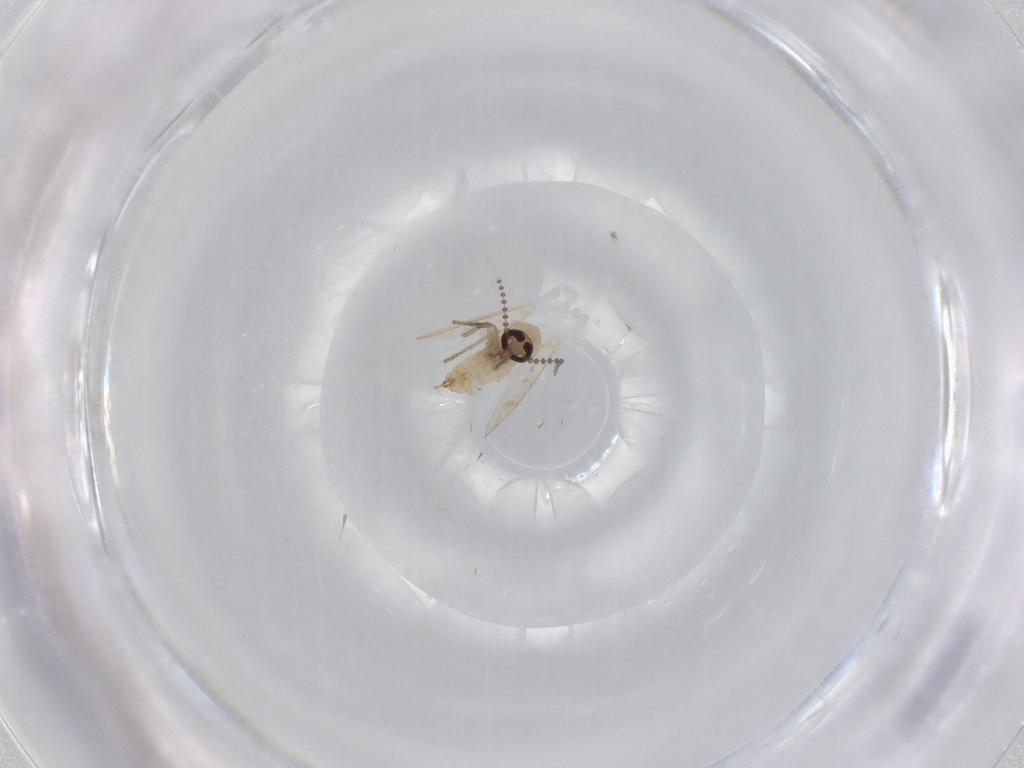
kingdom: Animalia
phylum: Arthropoda
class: Insecta
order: Diptera
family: Psychodidae
